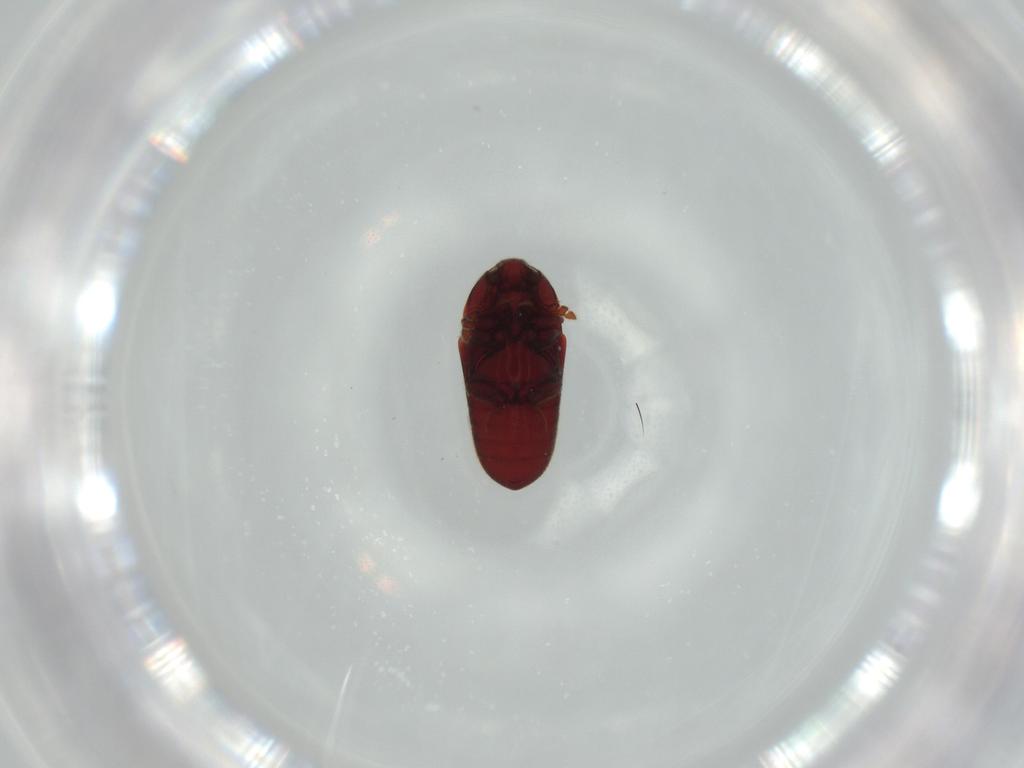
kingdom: Animalia
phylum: Arthropoda
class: Insecta
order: Coleoptera
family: Throscidae
